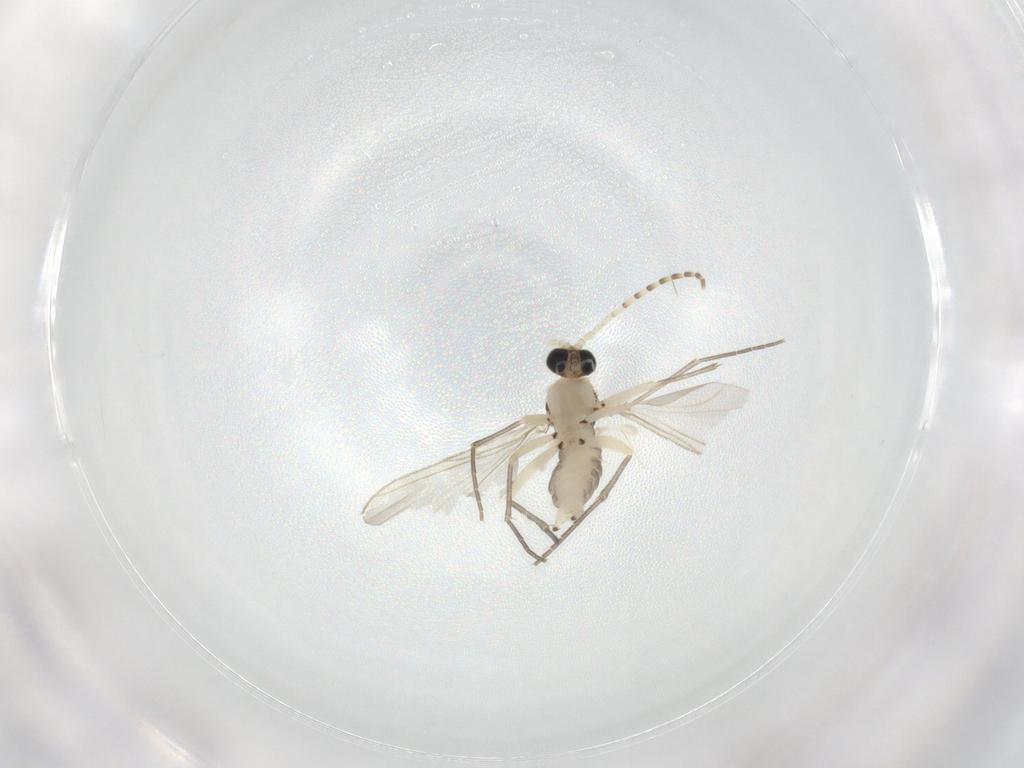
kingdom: Animalia
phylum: Arthropoda
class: Insecta
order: Diptera
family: Sciaridae
